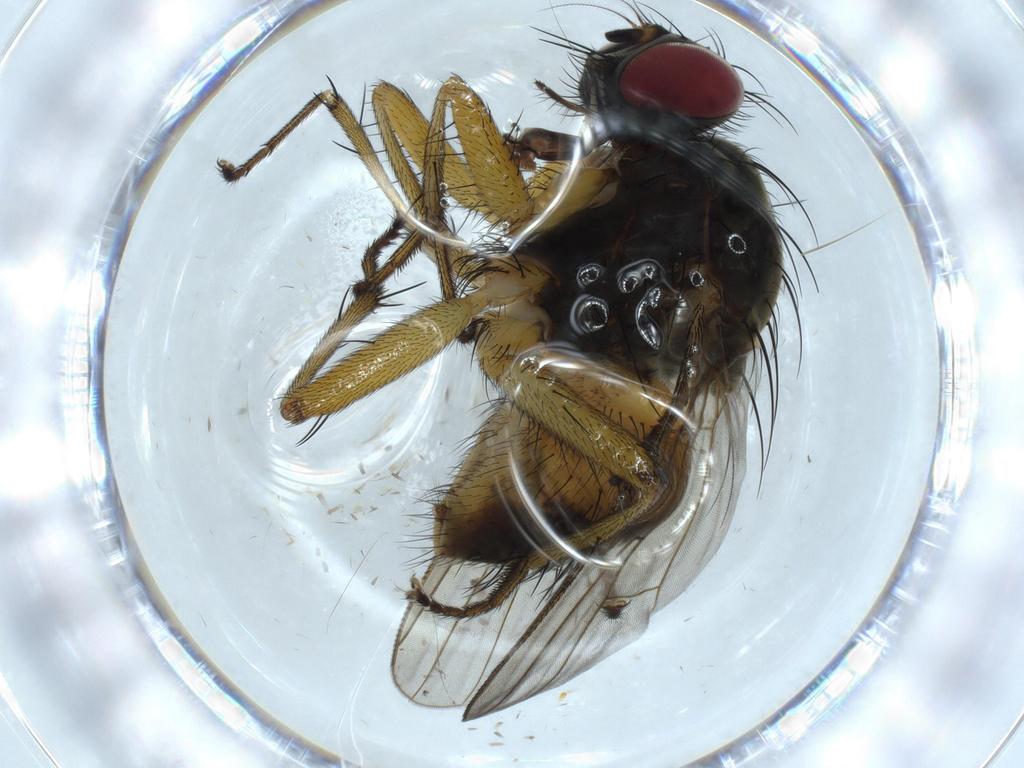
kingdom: Animalia
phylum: Arthropoda
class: Insecta
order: Diptera
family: Muscidae
